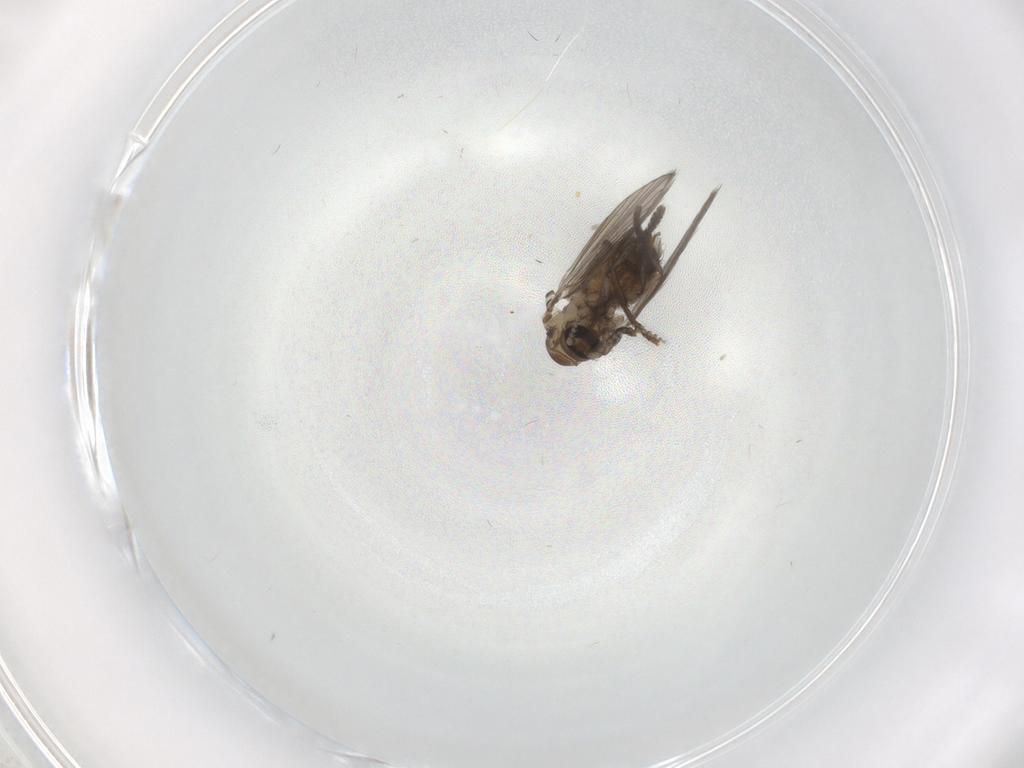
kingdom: Animalia
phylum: Arthropoda
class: Insecta
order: Diptera
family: Psychodidae
